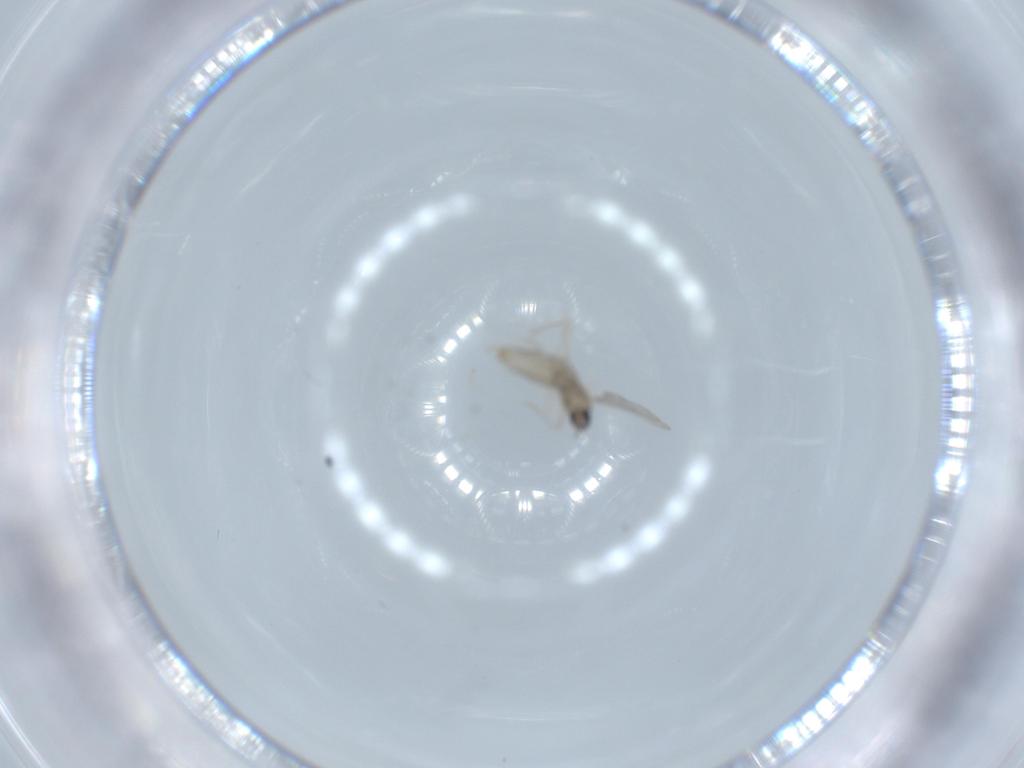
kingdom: Animalia
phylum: Arthropoda
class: Insecta
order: Diptera
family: Cecidomyiidae
